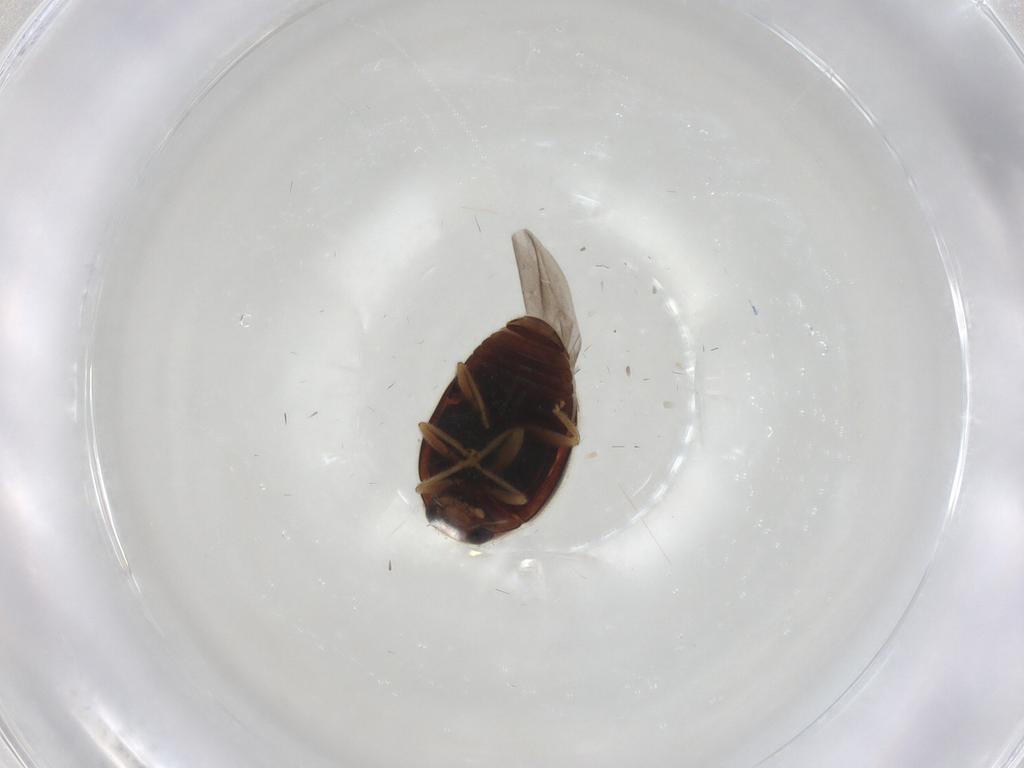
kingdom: Animalia
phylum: Arthropoda
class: Insecta
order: Coleoptera
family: Coccinellidae
